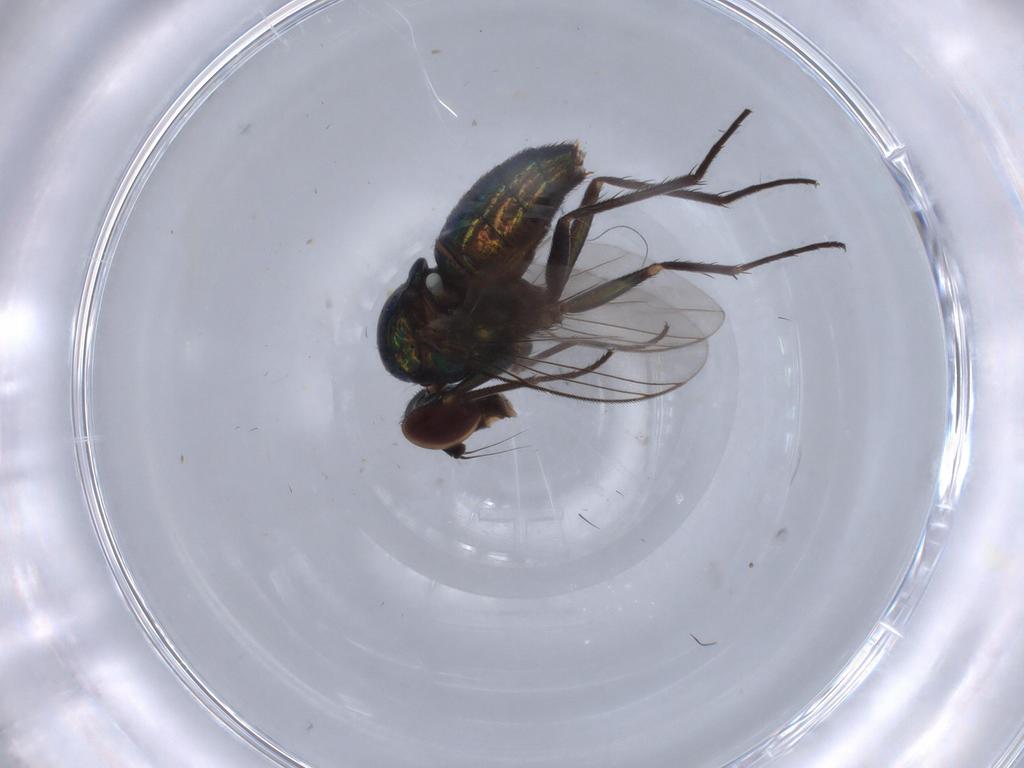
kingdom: Animalia
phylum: Arthropoda
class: Insecta
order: Diptera
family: Dolichopodidae
